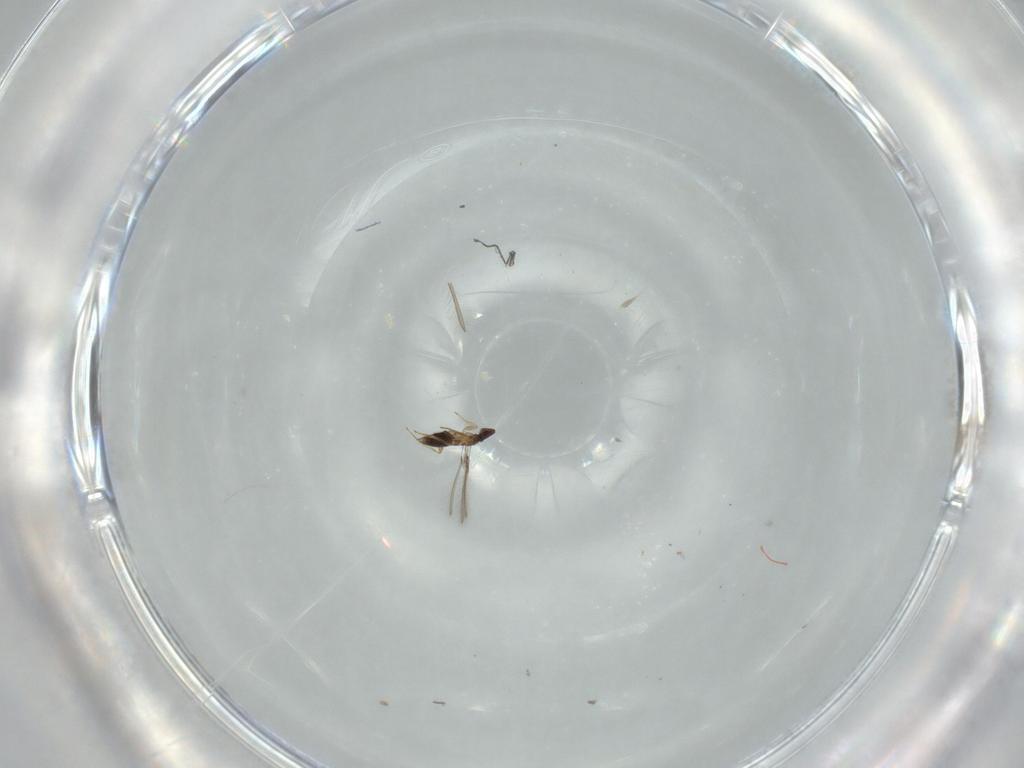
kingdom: Animalia
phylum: Arthropoda
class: Insecta
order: Hymenoptera
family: Mymaridae
